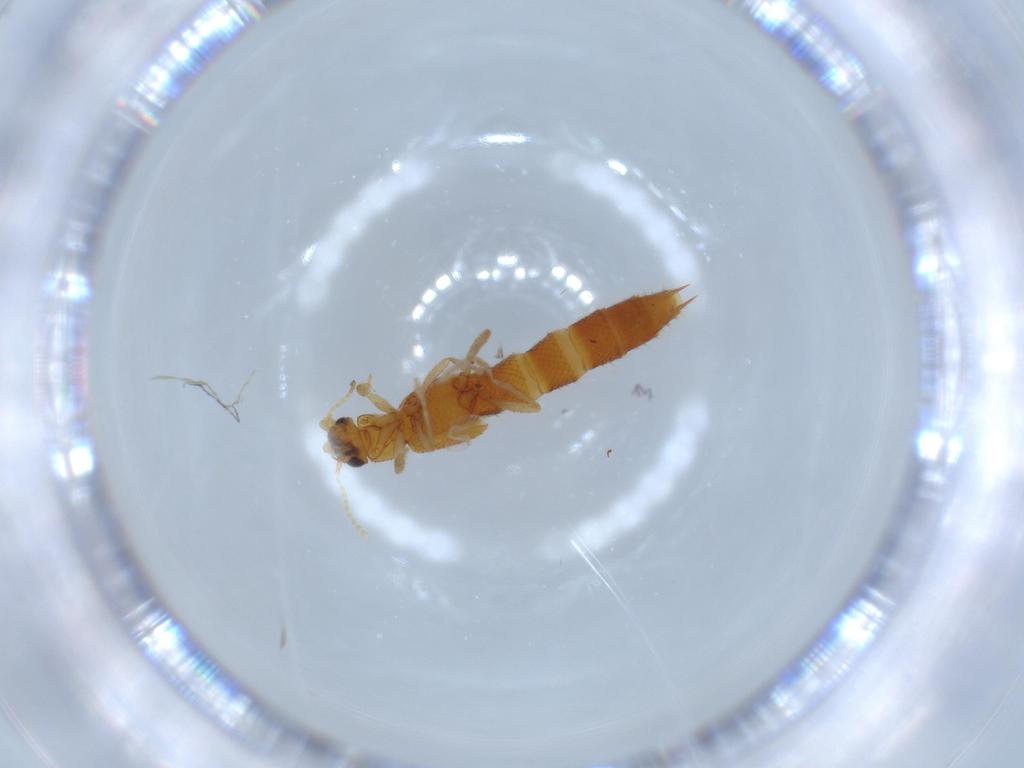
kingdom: Animalia
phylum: Arthropoda
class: Insecta
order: Coleoptera
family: Staphylinidae
